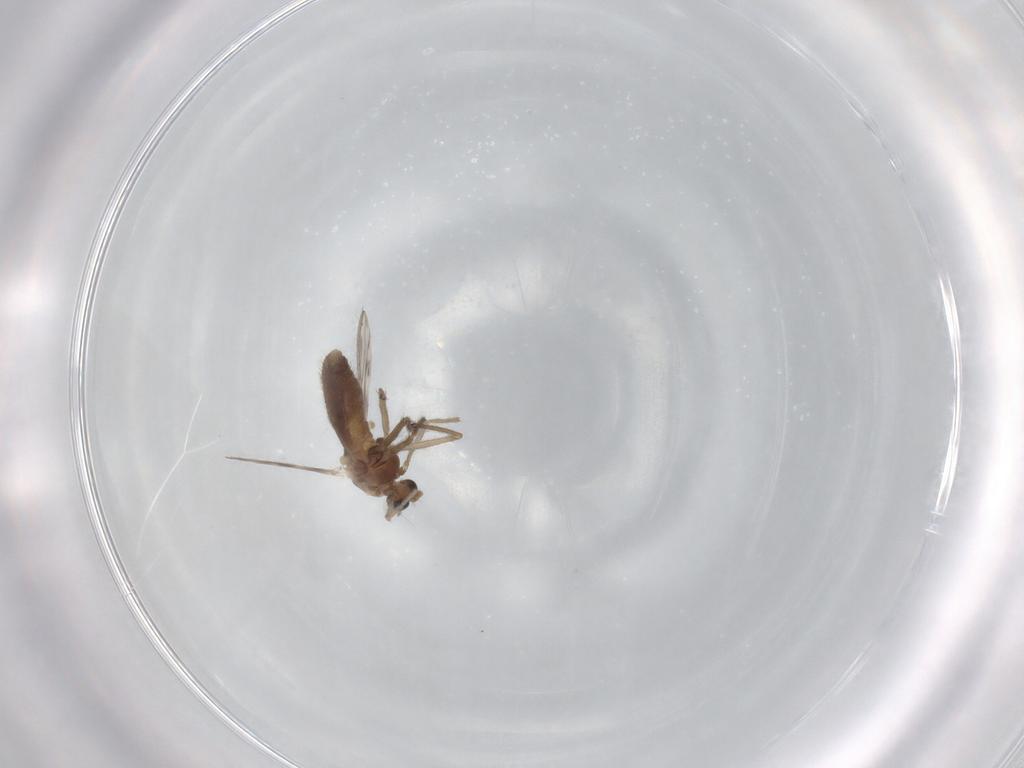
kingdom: Animalia
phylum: Arthropoda
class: Insecta
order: Diptera
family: Chironomidae
